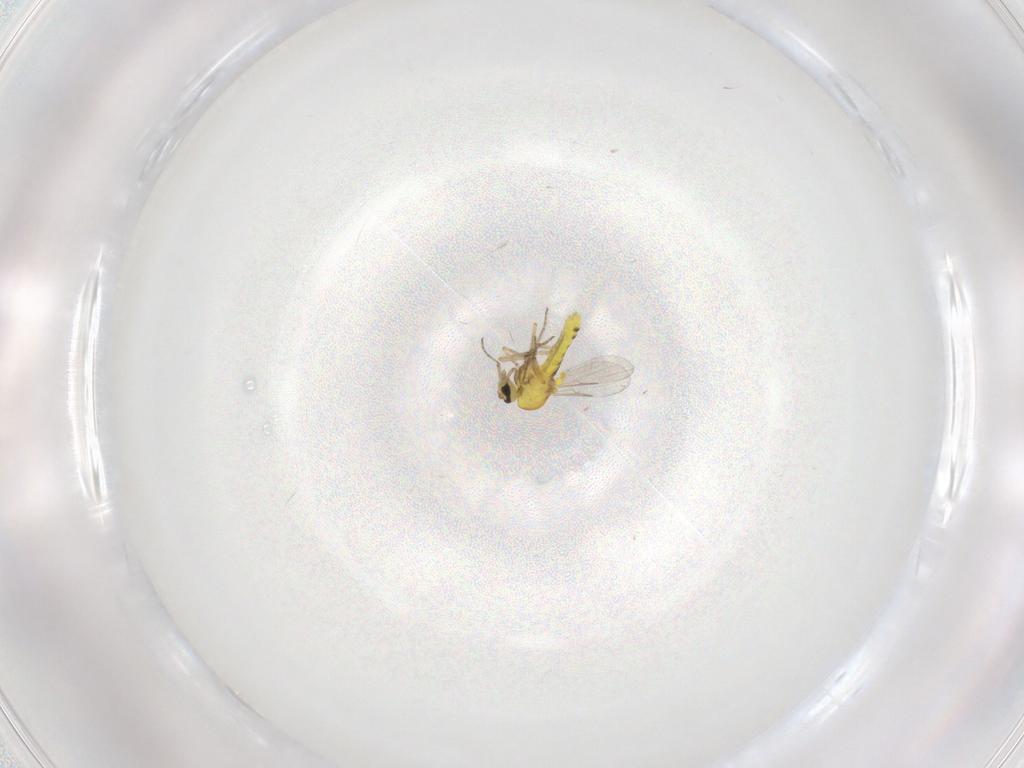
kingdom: Animalia
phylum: Arthropoda
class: Insecta
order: Diptera
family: Ceratopogonidae
